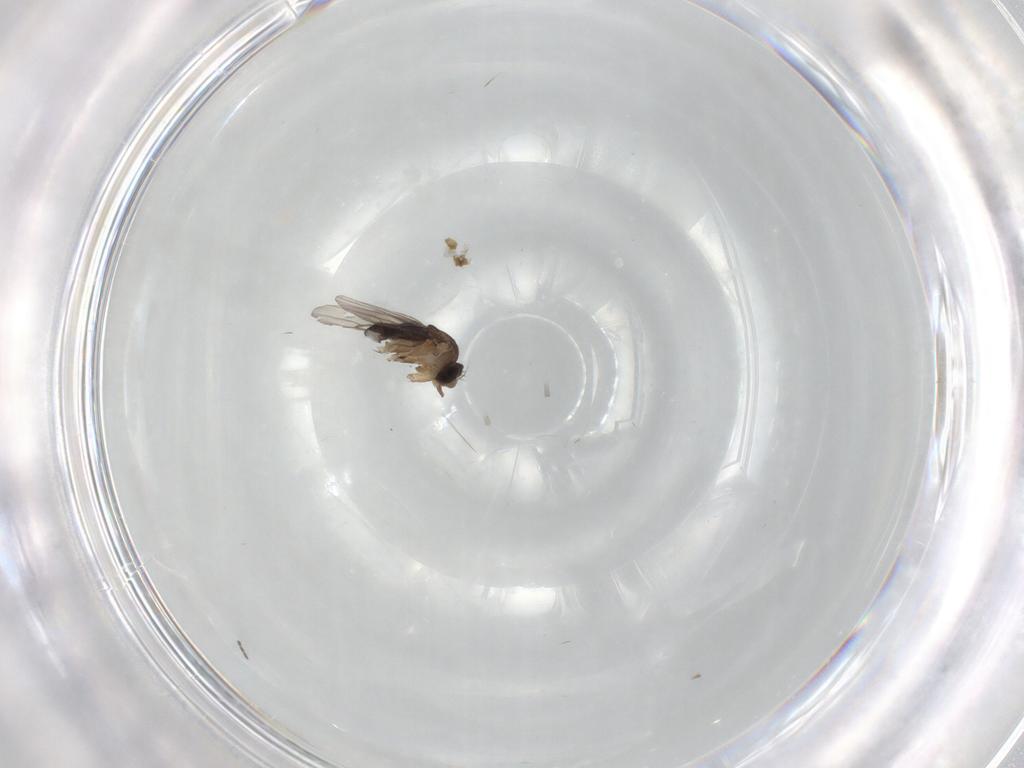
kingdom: Animalia
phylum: Arthropoda
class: Insecta
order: Diptera
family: Phoridae
